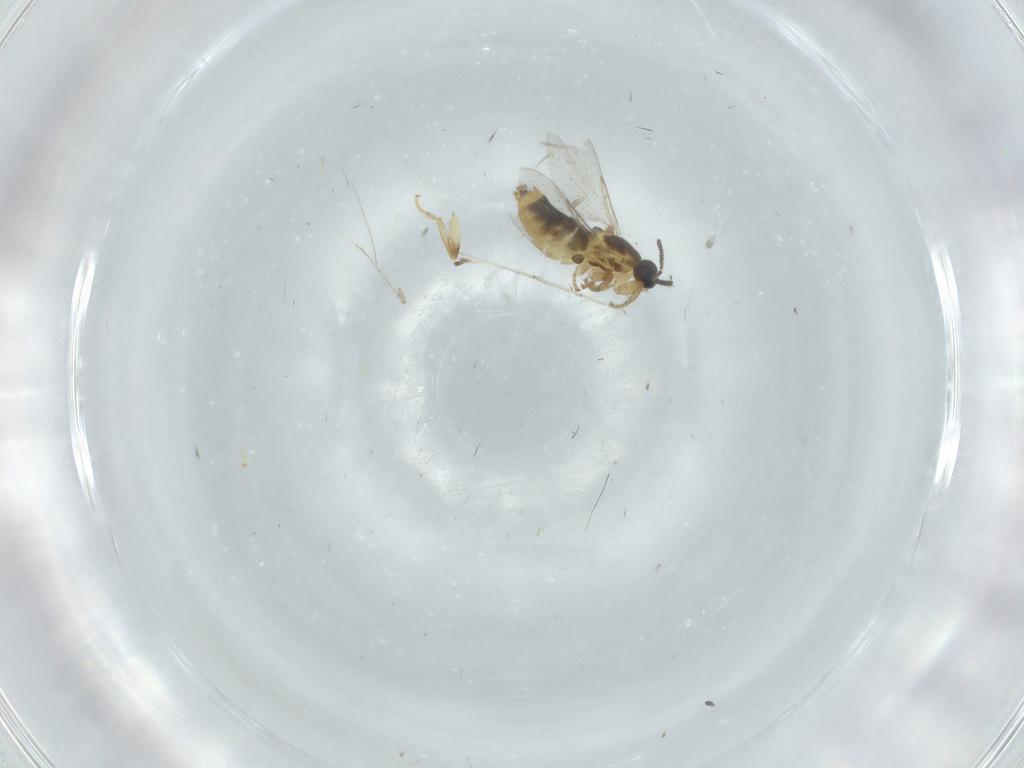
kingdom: Animalia
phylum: Arthropoda
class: Insecta
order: Diptera
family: Scatopsidae
